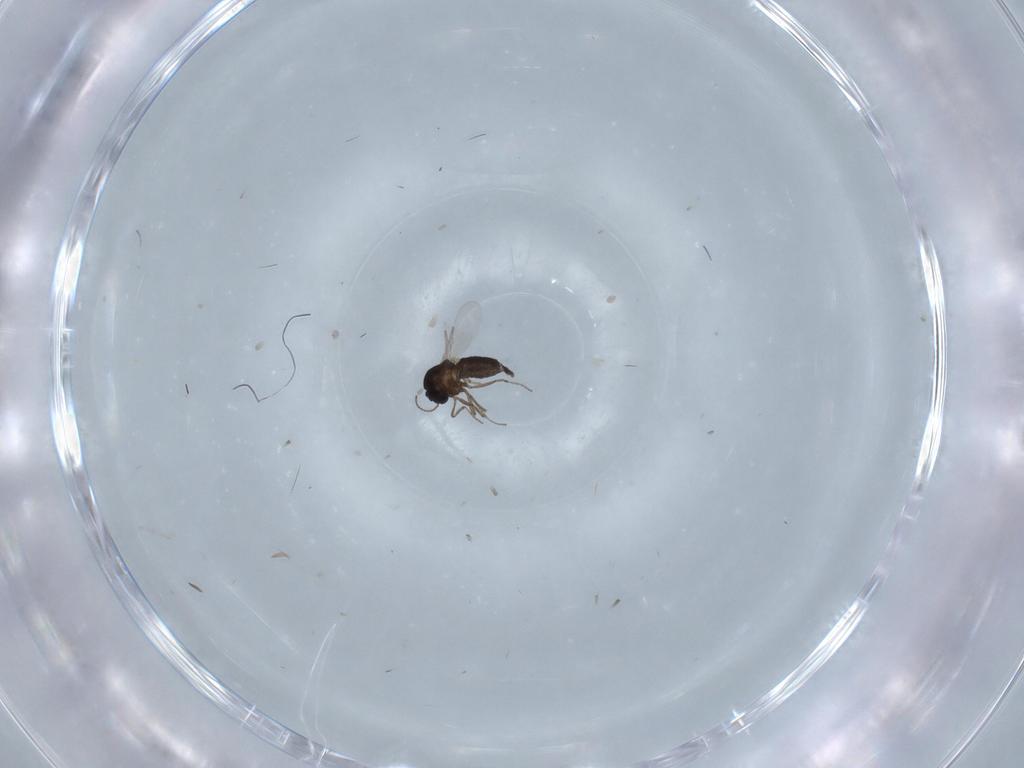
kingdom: Animalia
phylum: Arthropoda
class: Insecta
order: Diptera
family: Ceratopogonidae
